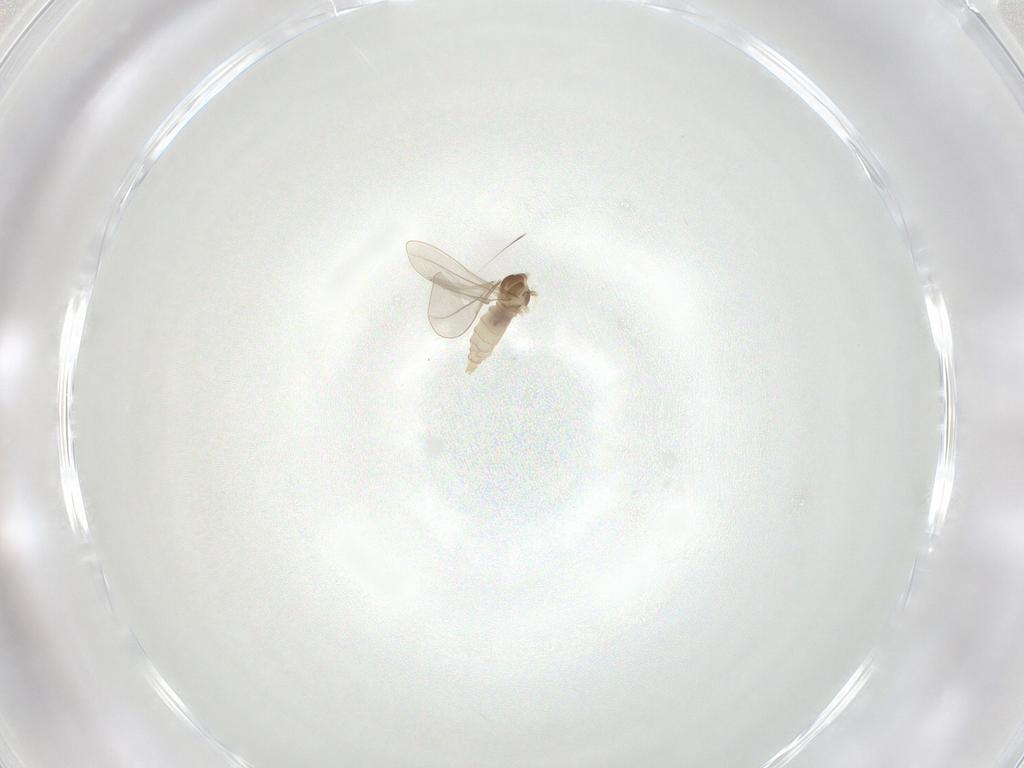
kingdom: Animalia
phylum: Arthropoda
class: Insecta
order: Diptera
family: Cecidomyiidae
